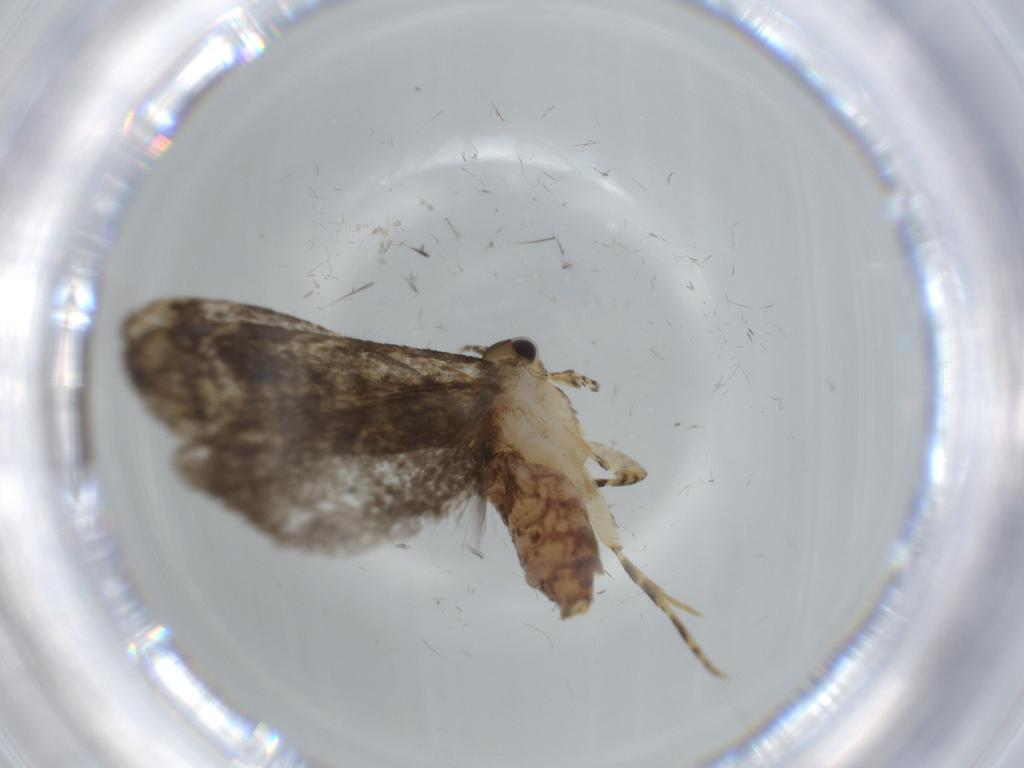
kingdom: Animalia
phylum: Arthropoda
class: Insecta
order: Lepidoptera
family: Tineidae
